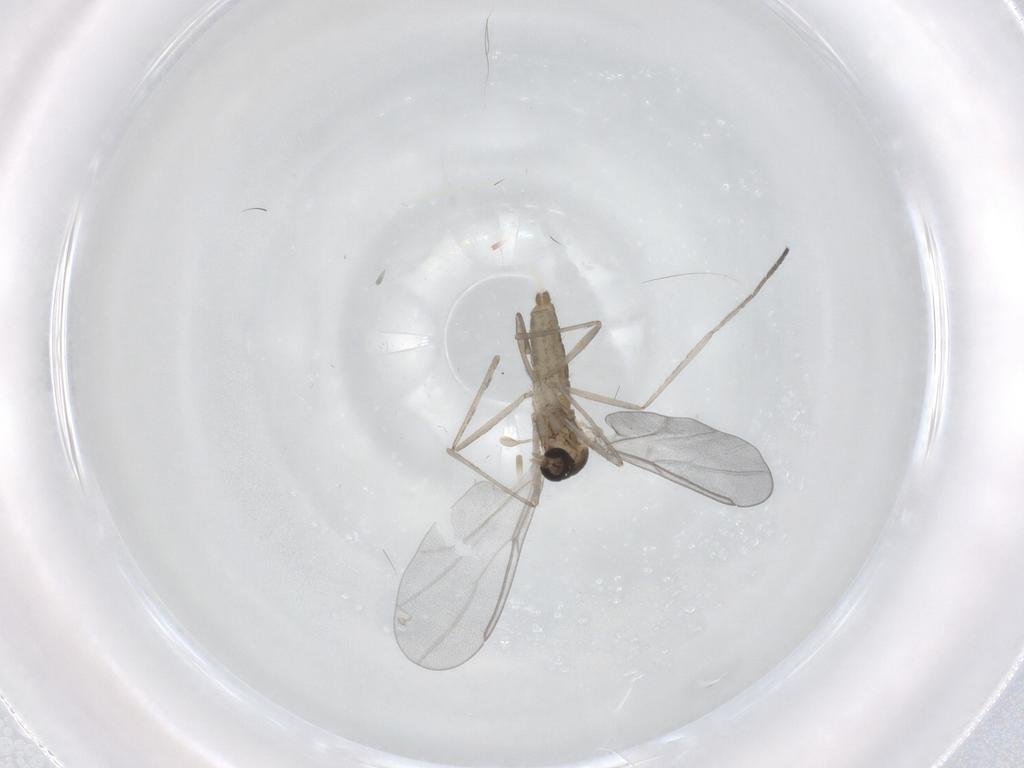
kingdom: Animalia
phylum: Arthropoda
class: Insecta
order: Diptera
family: Cecidomyiidae
